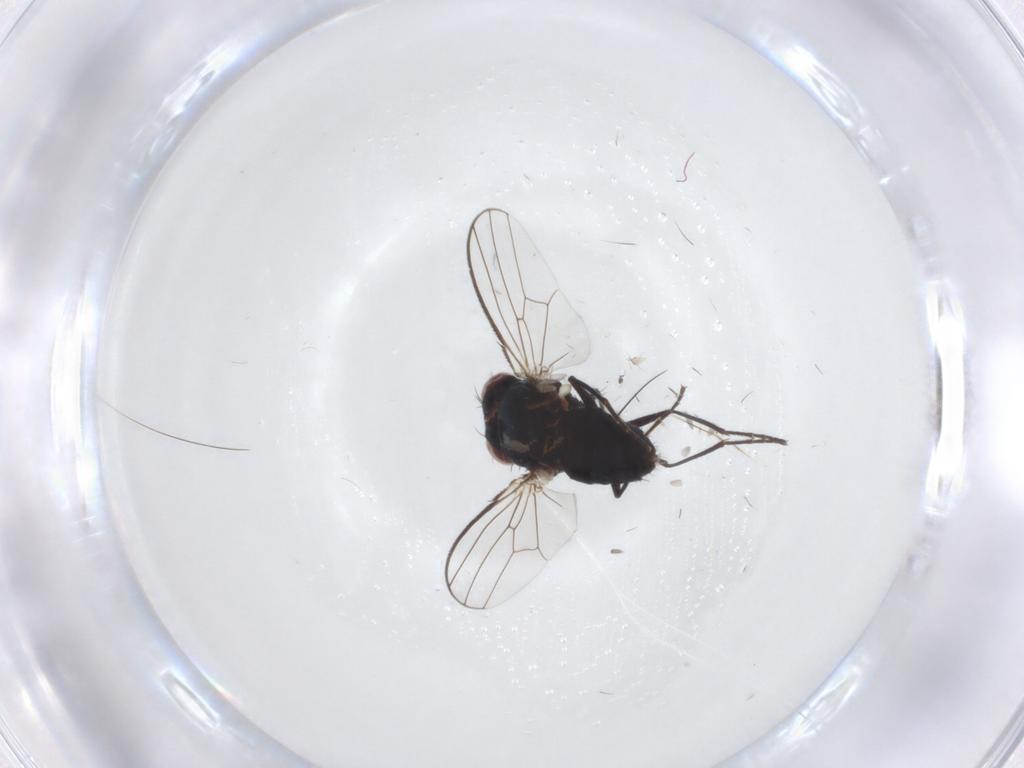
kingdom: Animalia
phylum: Arthropoda
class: Insecta
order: Diptera
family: Carnidae
